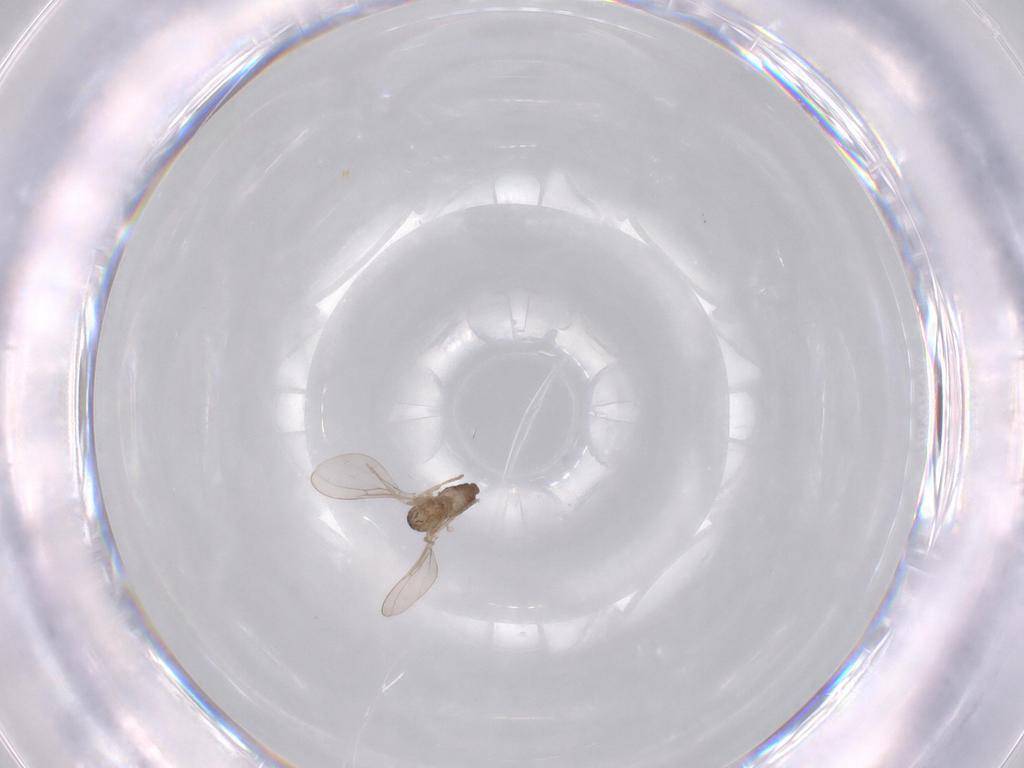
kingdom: Animalia
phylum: Arthropoda
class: Insecta
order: Diptera
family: Cecidomyiidae
